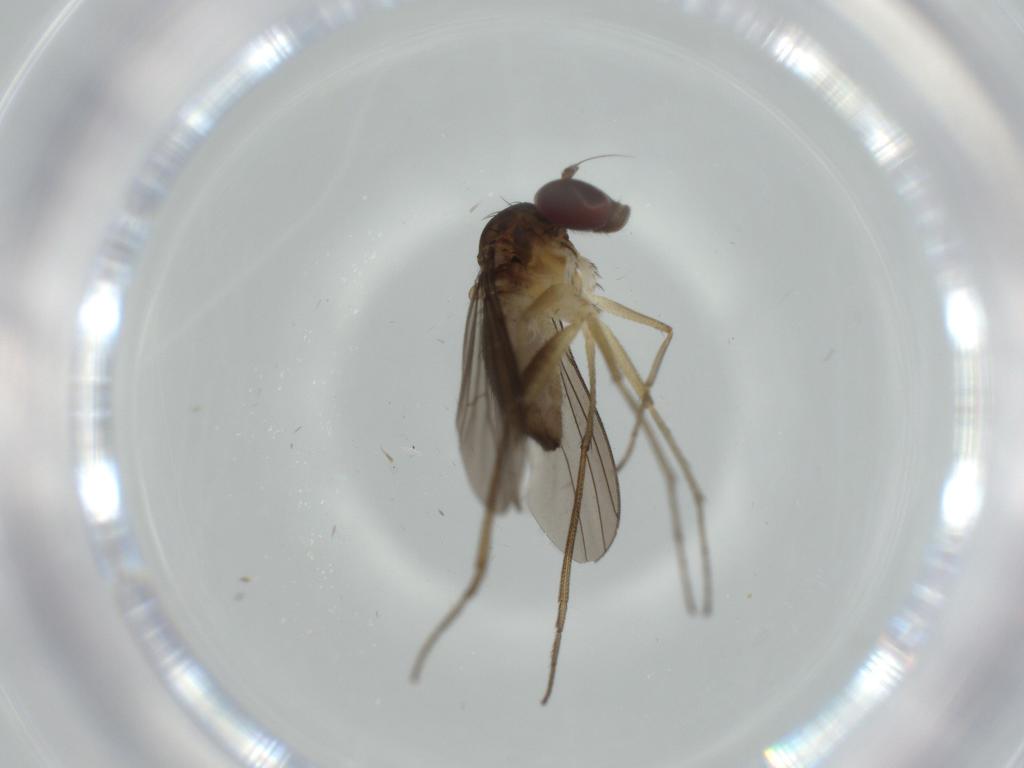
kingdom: Animalia
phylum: Arthropoda
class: Insecta
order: Diptera
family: Dolichopodidae
